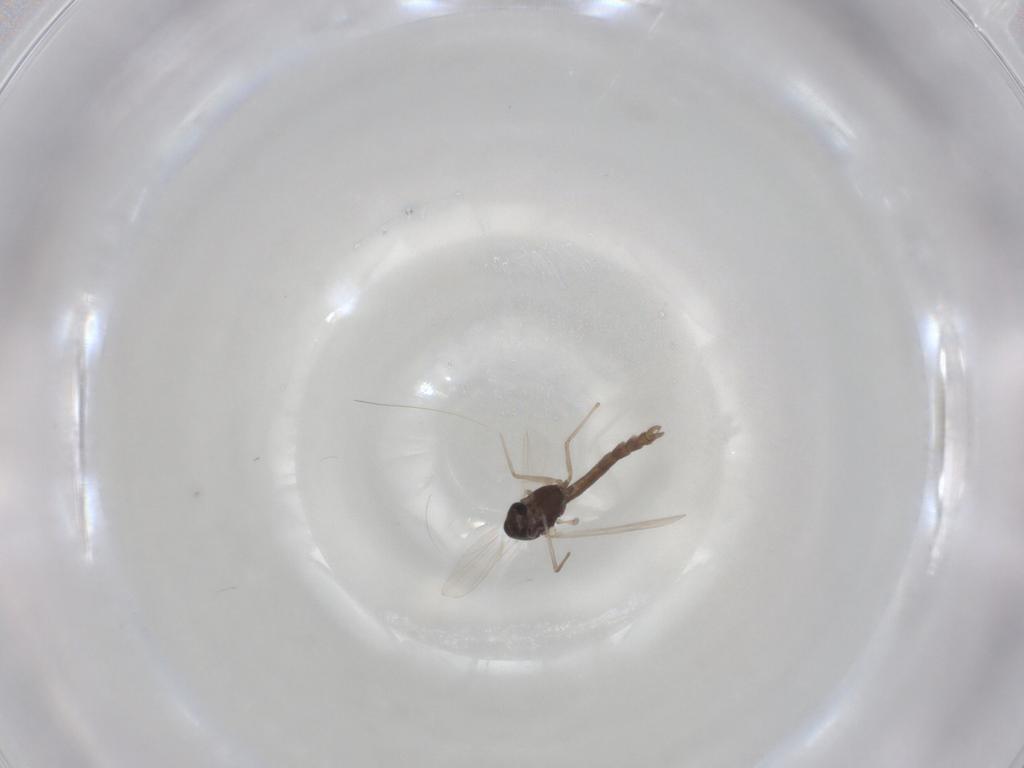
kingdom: Animalia
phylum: Arthropoda
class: Insecta
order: Diptera
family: Chironomidae
